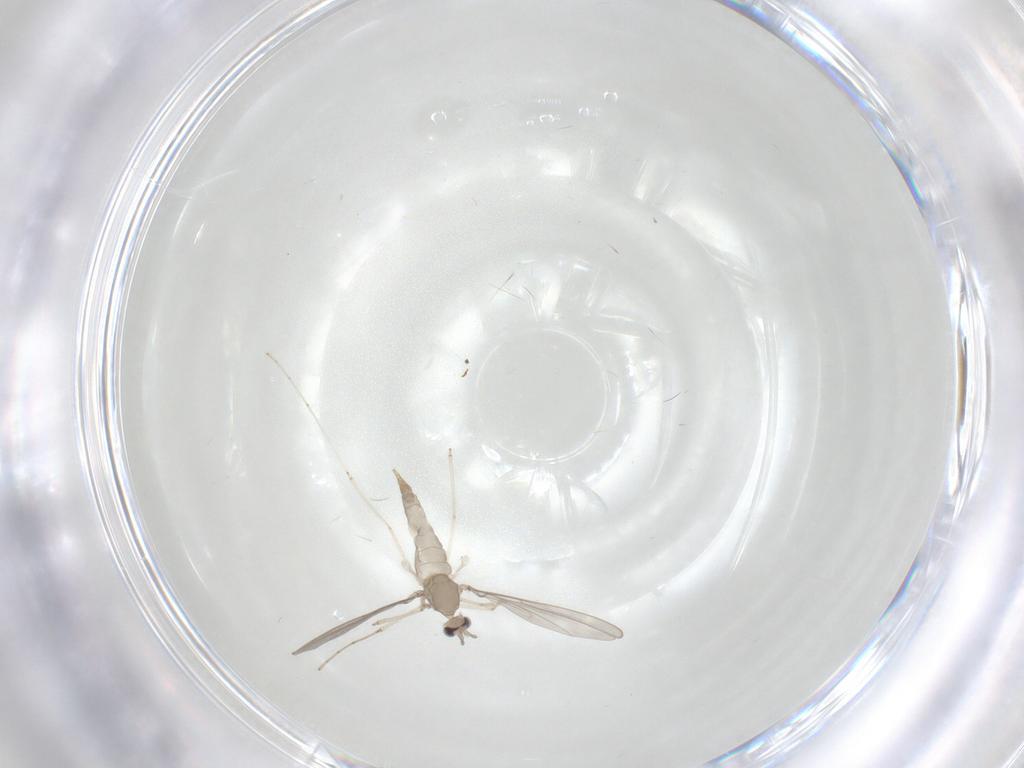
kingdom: Animalia
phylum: Arthropoda
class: Insecta
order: Diptera
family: Cecidomyiidae
